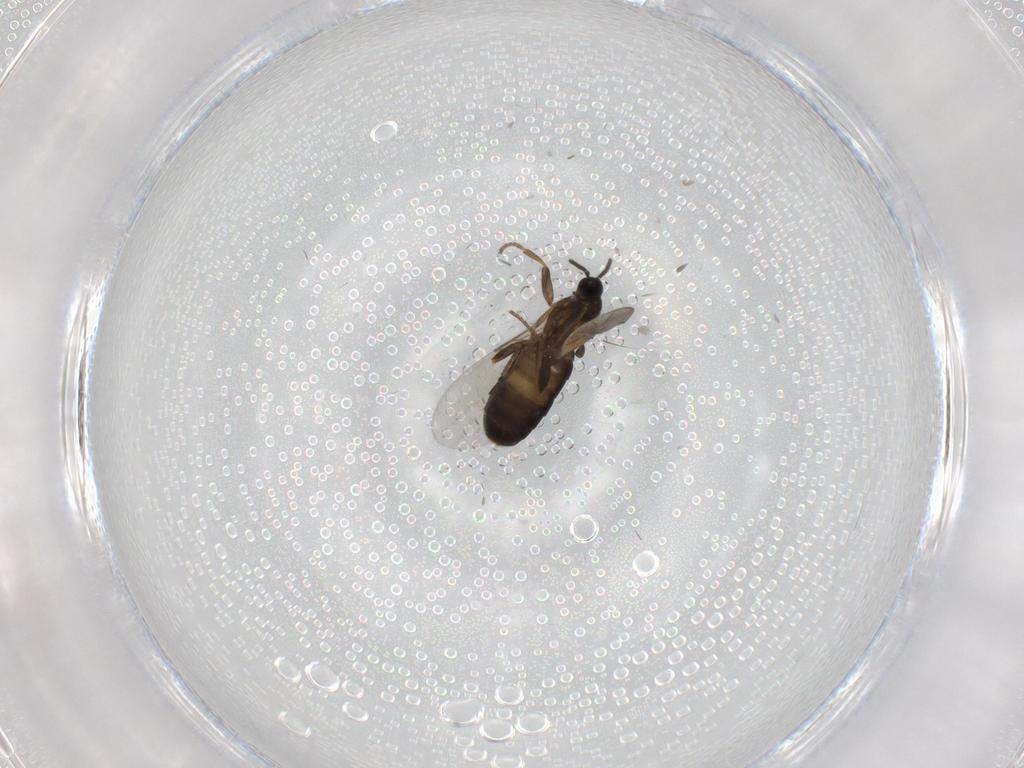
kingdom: Animalia
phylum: Arthropoda
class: Insecta
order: Diptera
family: Scatopsidae
